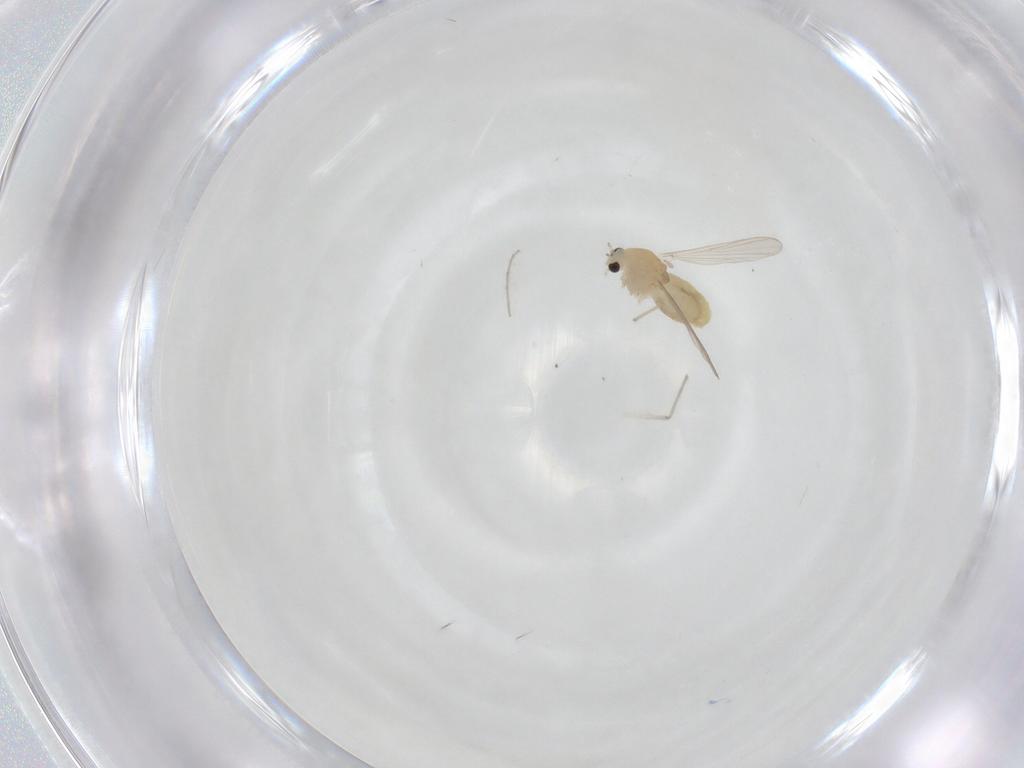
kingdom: Animalia
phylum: Arthropoda
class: Insecta
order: Diptera
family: Chironomidae
